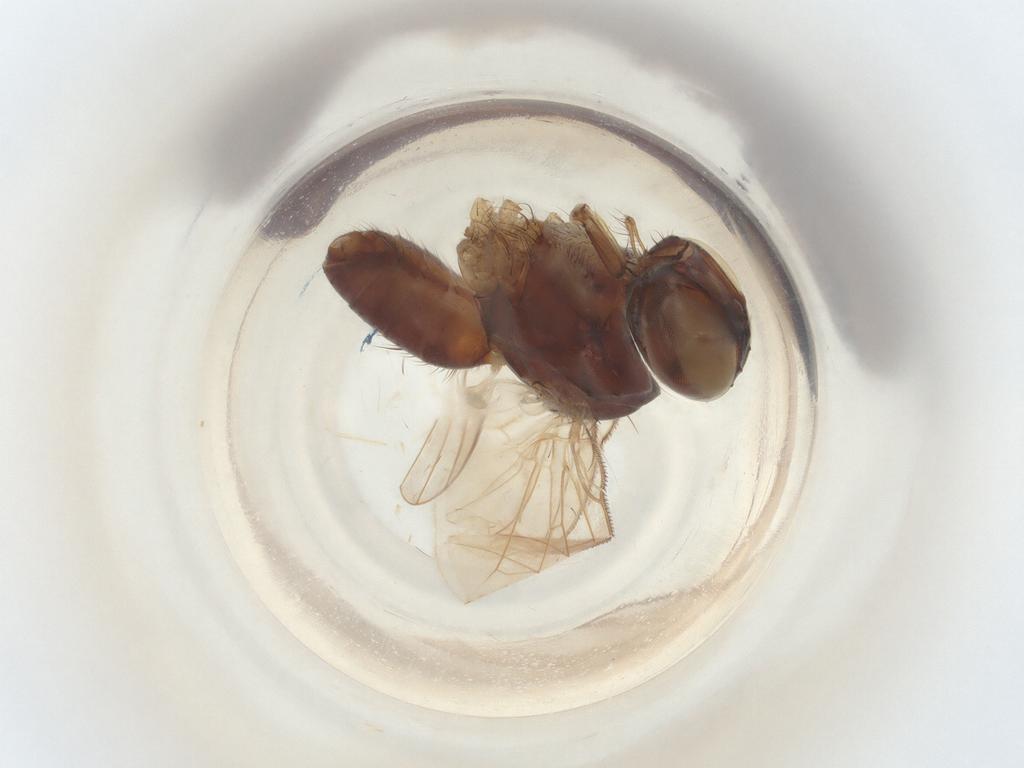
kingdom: Animalia
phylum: Arthropoda
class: Insecta
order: Diptera
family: Muscidae
